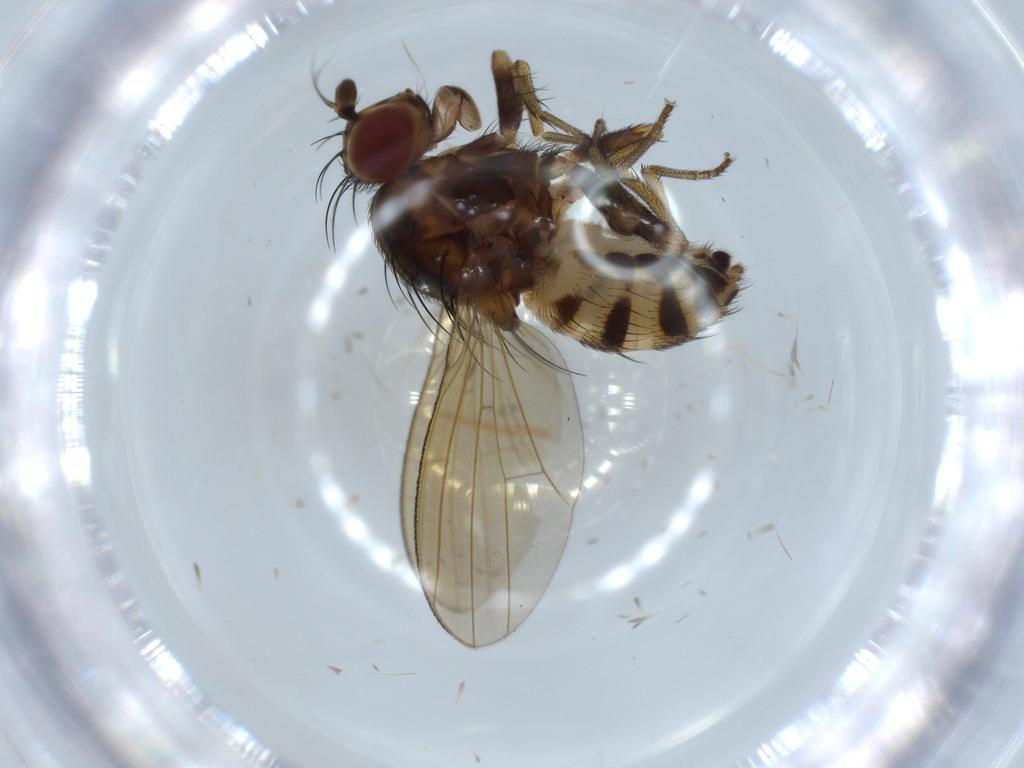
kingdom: Animalia
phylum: Arthropoda
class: Insecta
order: Diptera
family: Lauxaniidae
